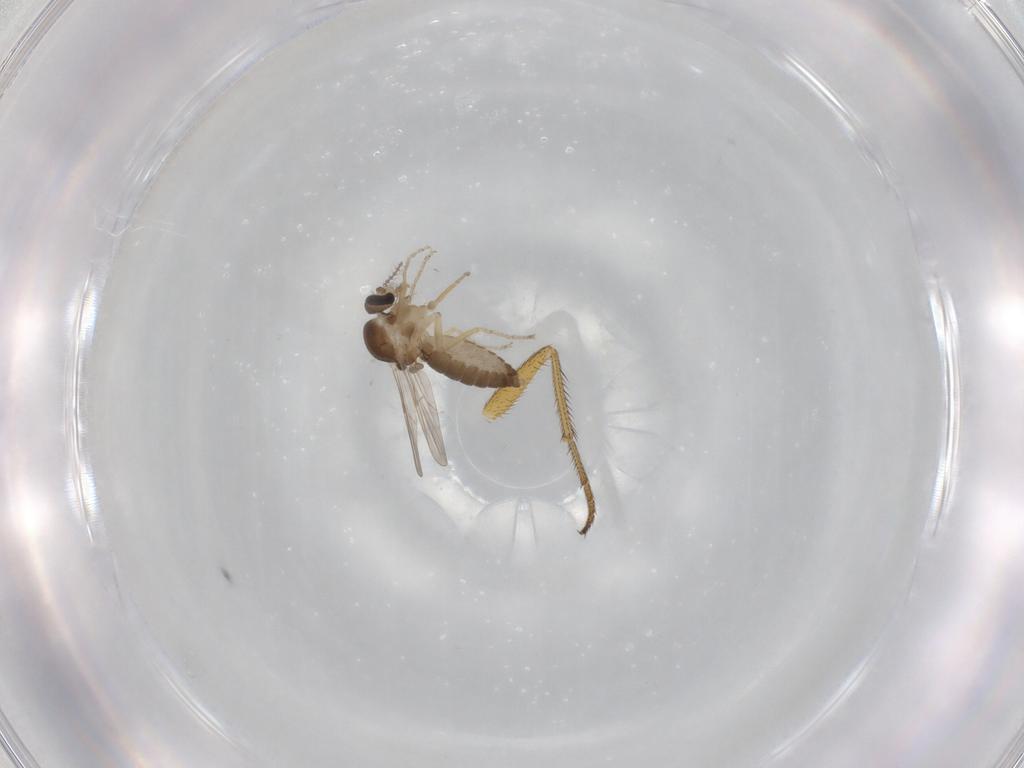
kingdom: Animalia
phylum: Arthropoda
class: Insecta
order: Diptera
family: Ceratopogonidae
